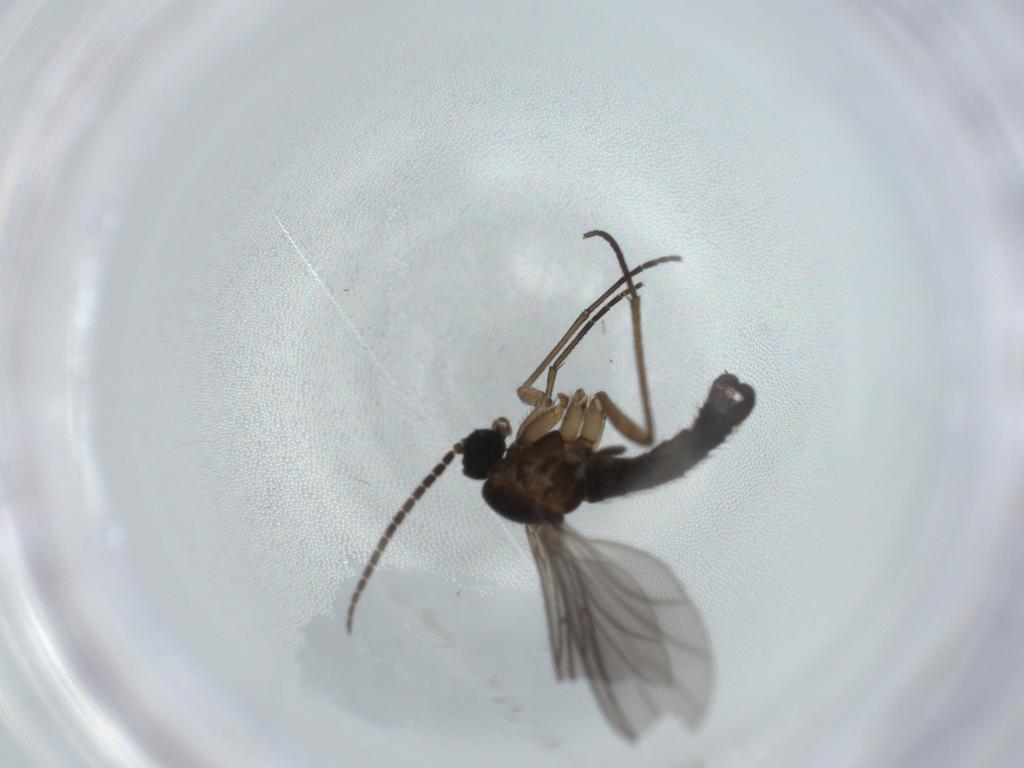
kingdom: Animalia
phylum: Arthropoda
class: Insecta
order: Diptera
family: Sciaridae
